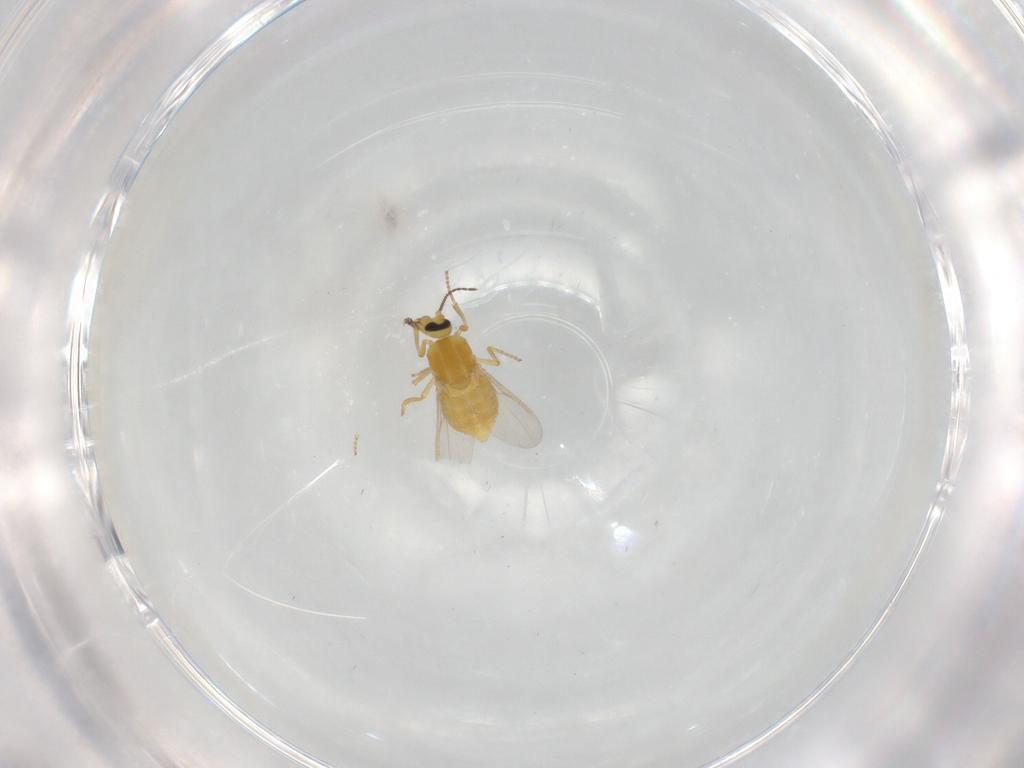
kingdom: Animalia
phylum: Arthropoda
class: Insecta
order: Diptera
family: Ceratopogonidae
